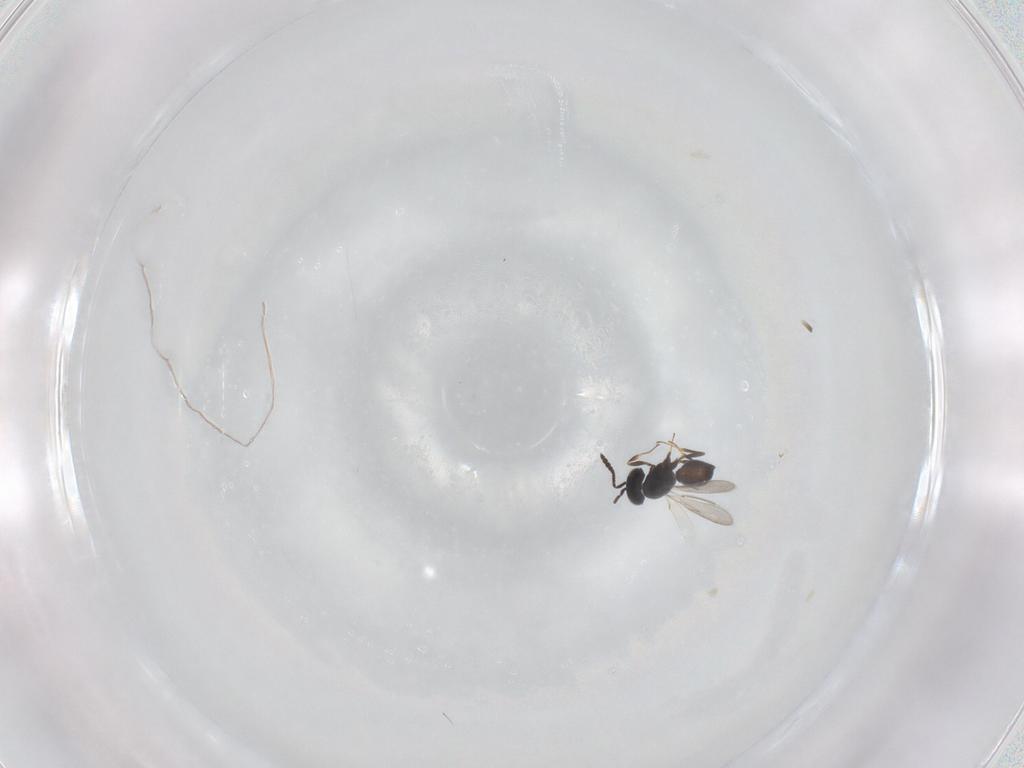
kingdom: Animalia
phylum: Arthropoda
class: Insecta
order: Hymenoptera
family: Scelionidae
